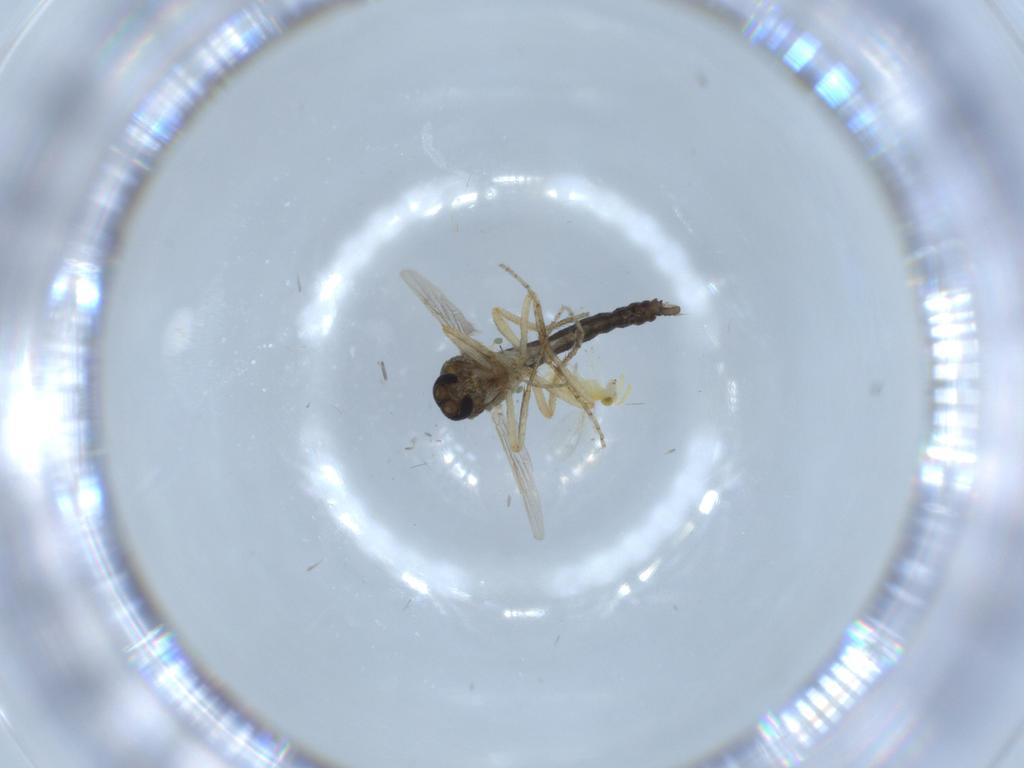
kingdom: Animalia
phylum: Arthropoda
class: Insecta
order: Diptera
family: Ceratopogonidae
